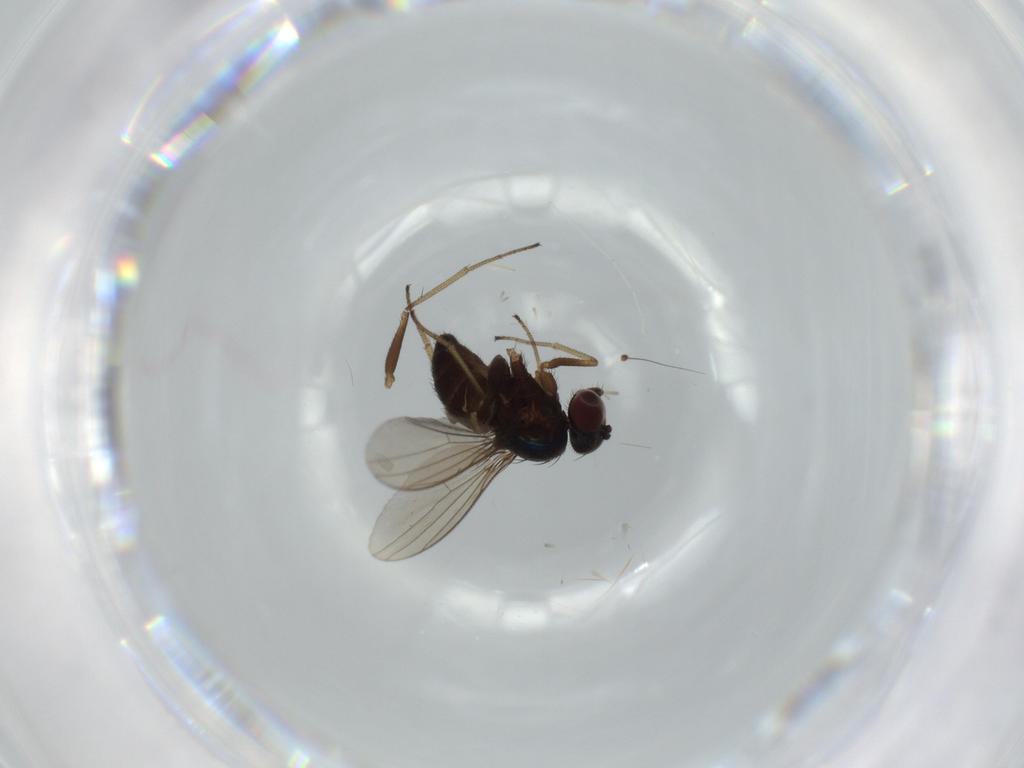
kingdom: Animalia
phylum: Arthropoda
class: Insecta
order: Diptera
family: Dolichopodidae
